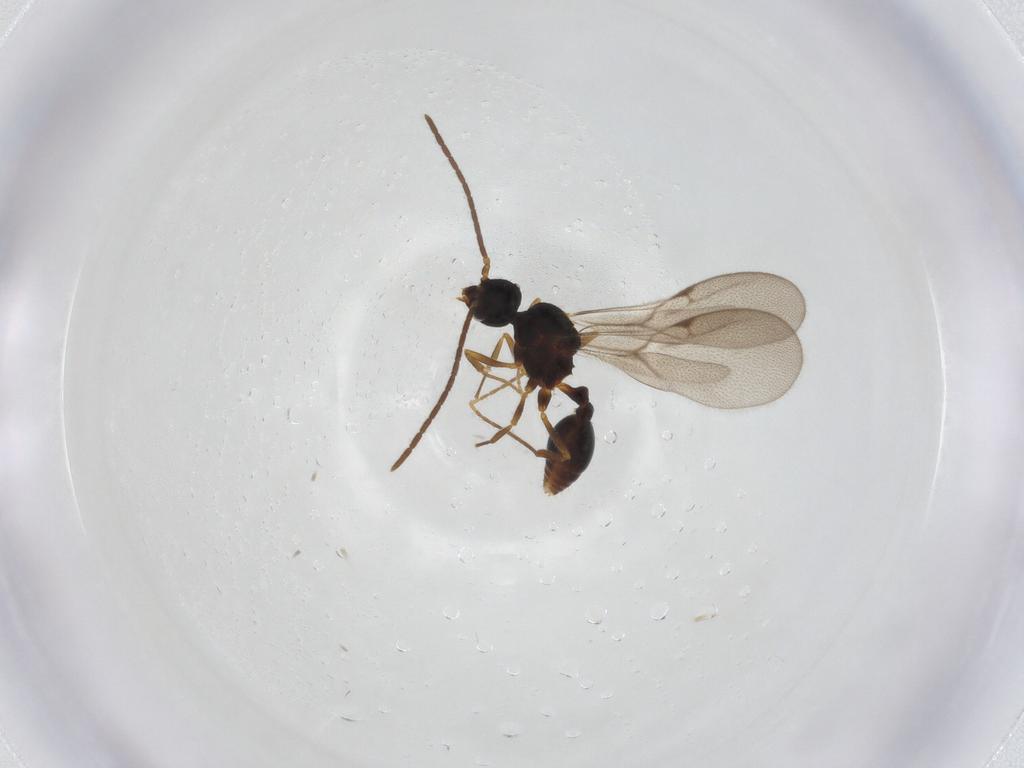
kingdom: Animalia
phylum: Arthropoda
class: Insecta
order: Hymenoptera
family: Formicidae
